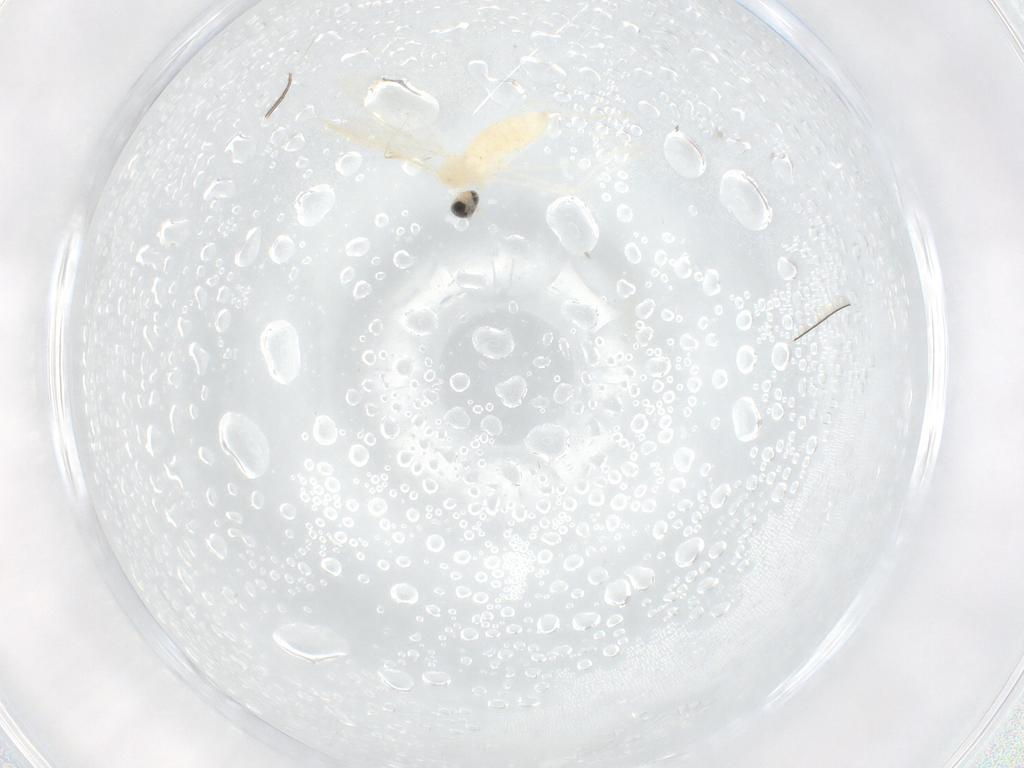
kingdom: Animalia
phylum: Arthropoda
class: Insecta
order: Diptera
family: Cecidomyiidae
